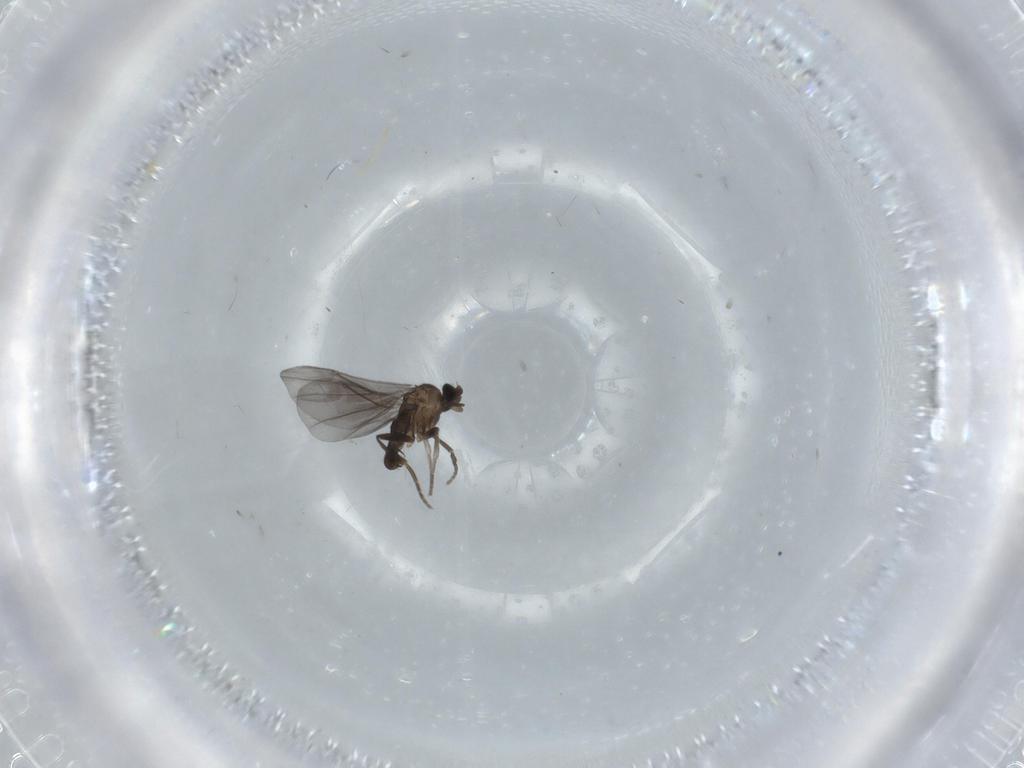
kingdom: Animalia
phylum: Arthropoda
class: Insecta
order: Diptera
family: Phoridae
